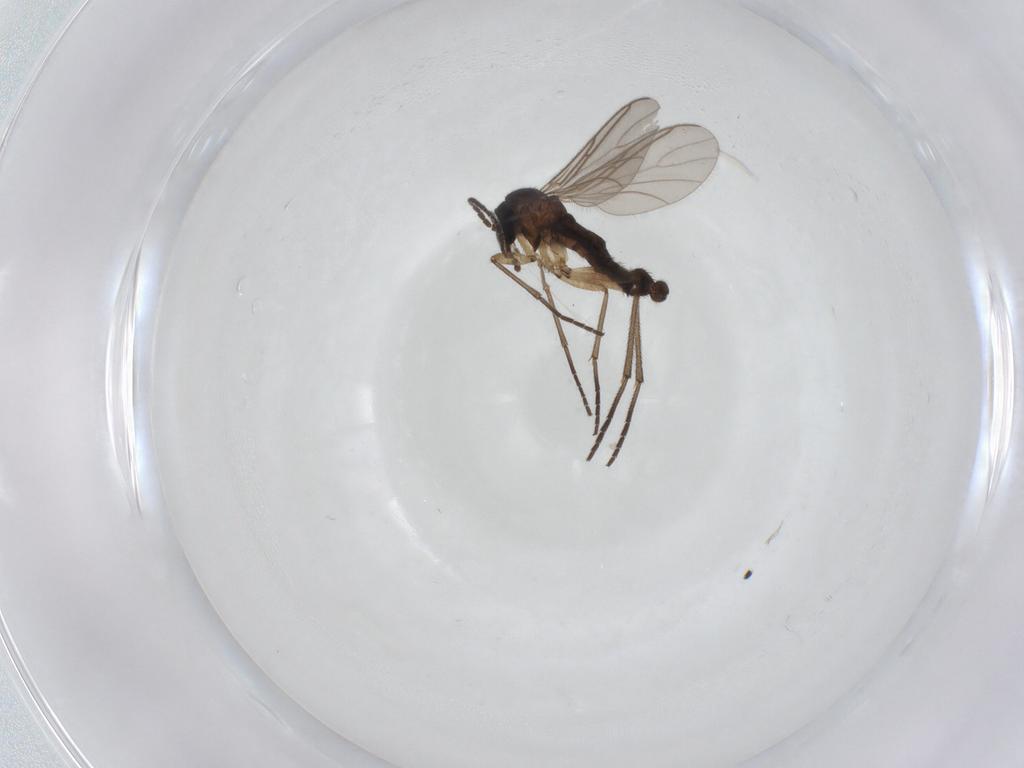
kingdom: Animalia
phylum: Arthropoda
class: Insecta
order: Diptera
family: Sciaridae
